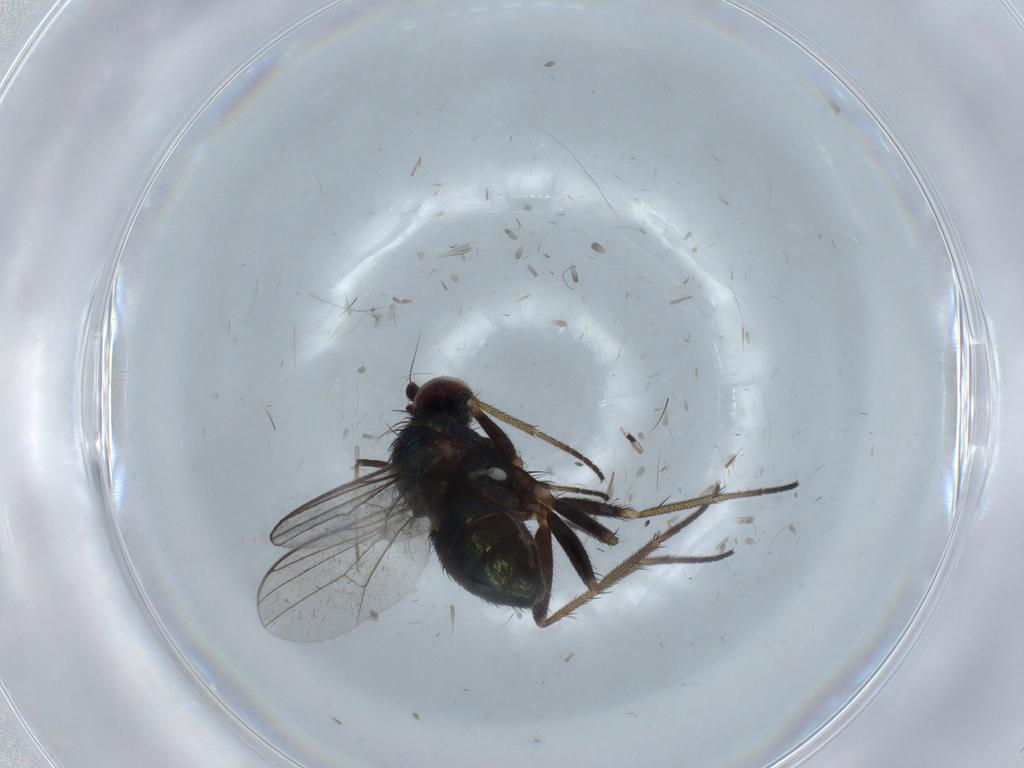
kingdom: Animalia
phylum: Arthropoda
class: Insecta
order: Diptera
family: Dolichopodidae
